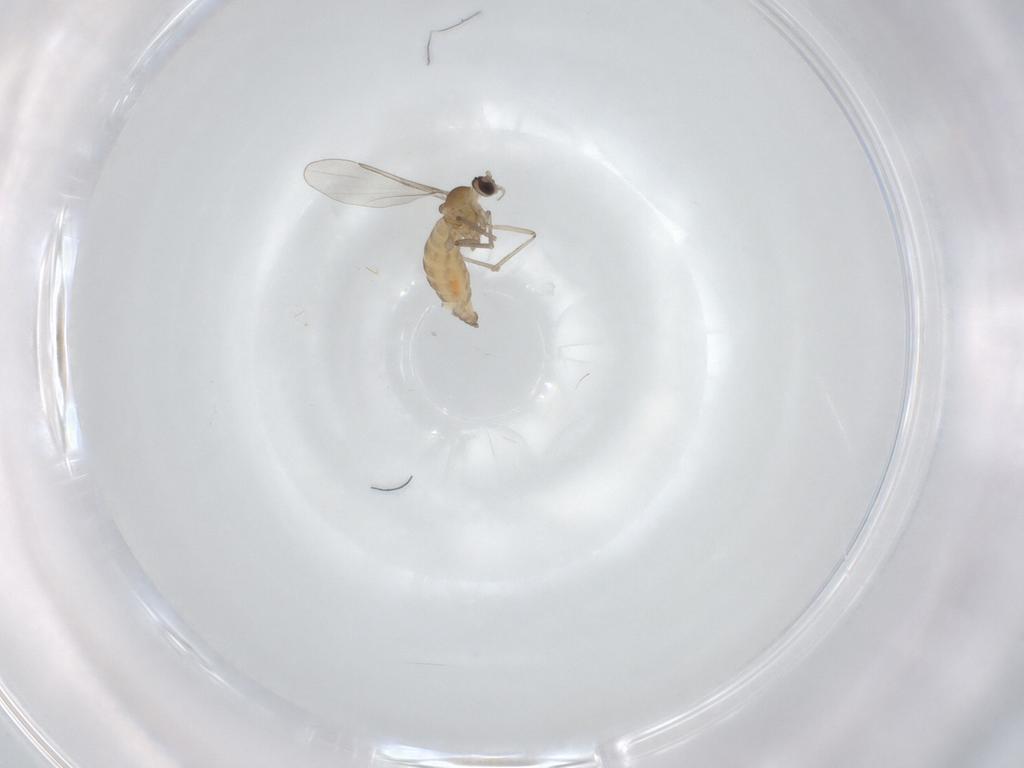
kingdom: Animalia
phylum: Arthropoda
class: Insecta
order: Diptera
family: Ceratopogonidae
